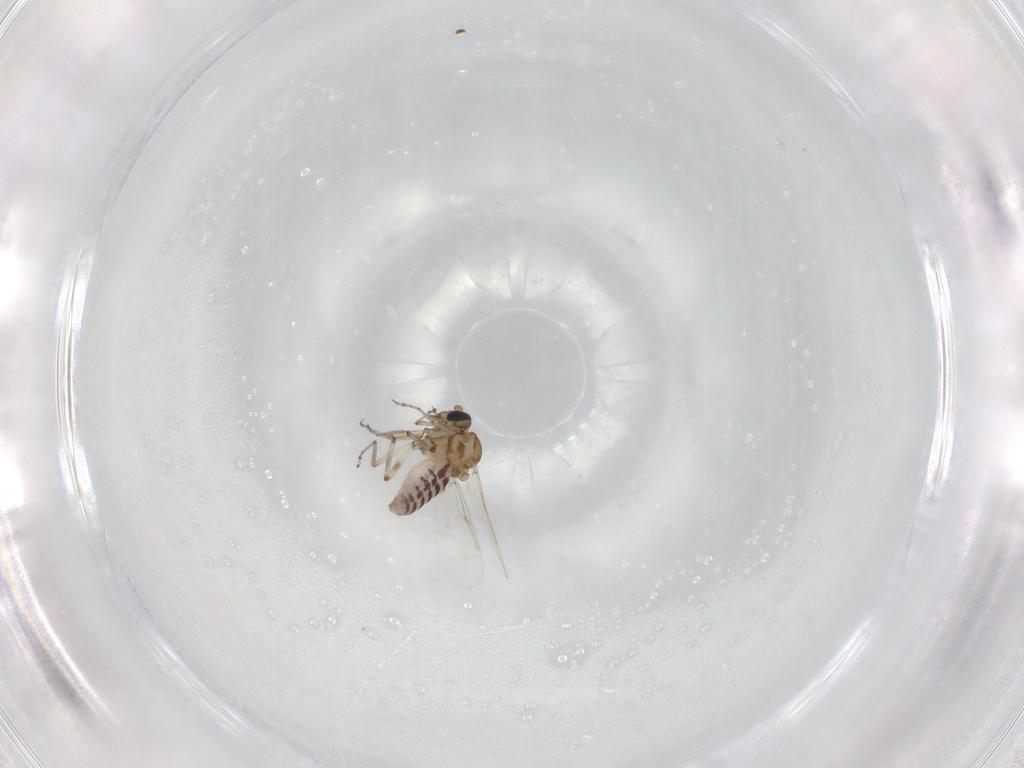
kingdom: Animalia
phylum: Arthropoda
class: Insecta
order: Diptera
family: Ceratopogonidae
